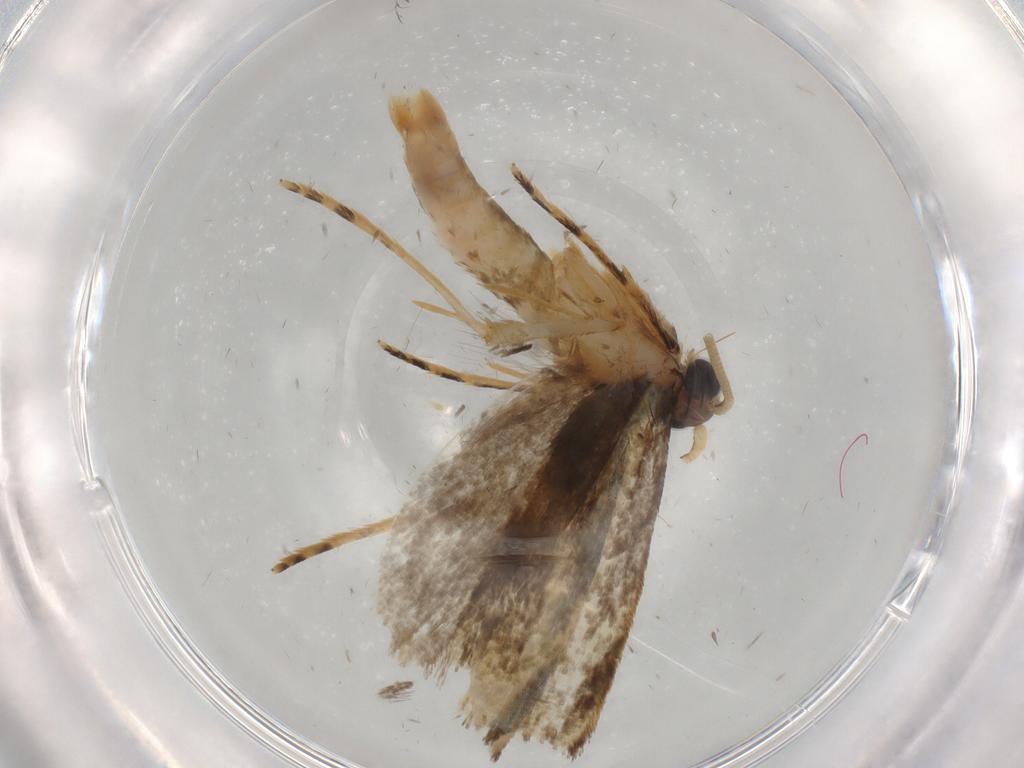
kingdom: Animalia
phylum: Arthropoda
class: Insecta
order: Lepidoptera
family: Tineidae
